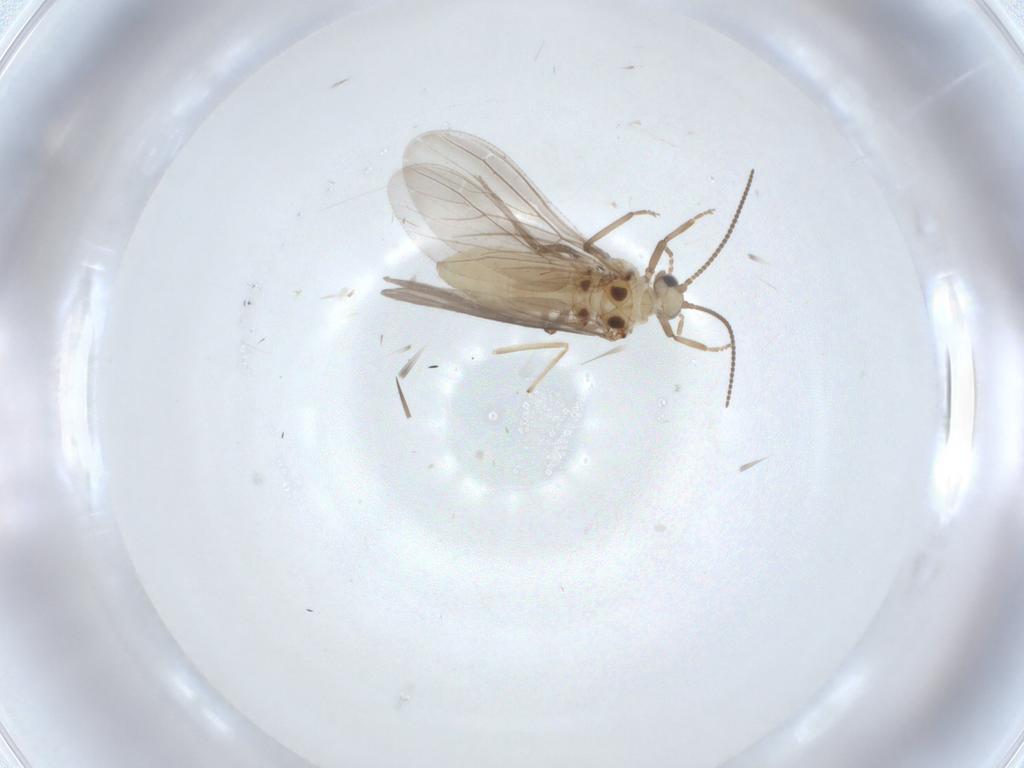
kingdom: Animalia
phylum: Arthropoda
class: Insecta
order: Neuroptera
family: Coniopterygidae
